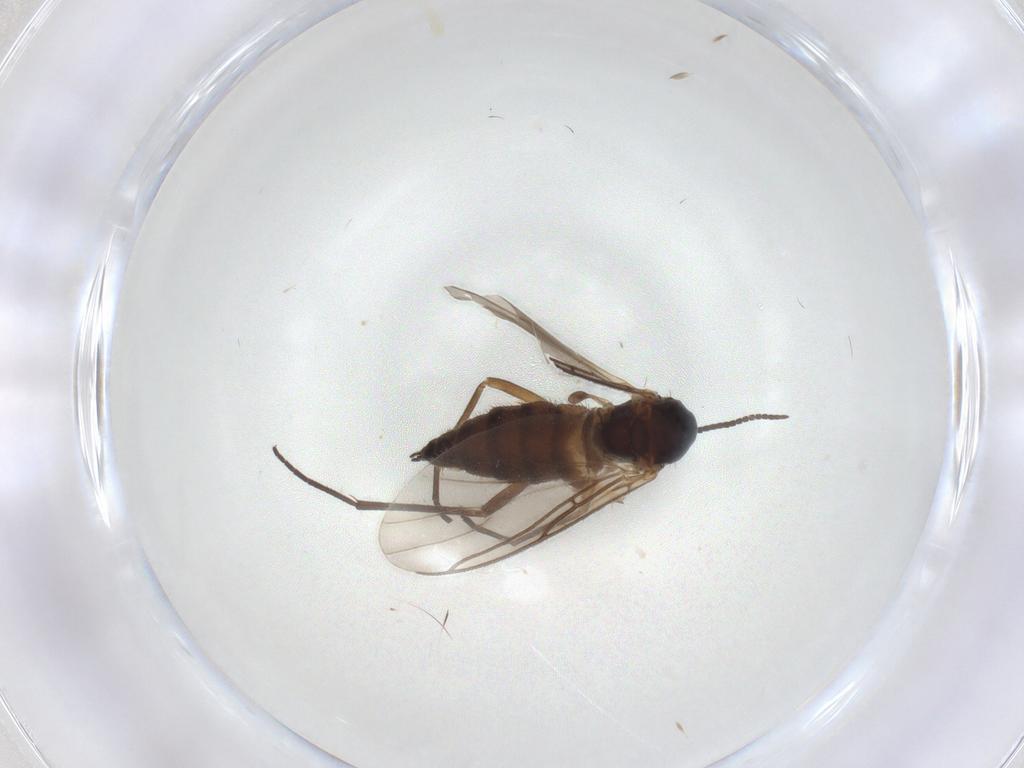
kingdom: Animalia
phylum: Arthropoda
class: Insecta
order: Diptera
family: Sciaridae
